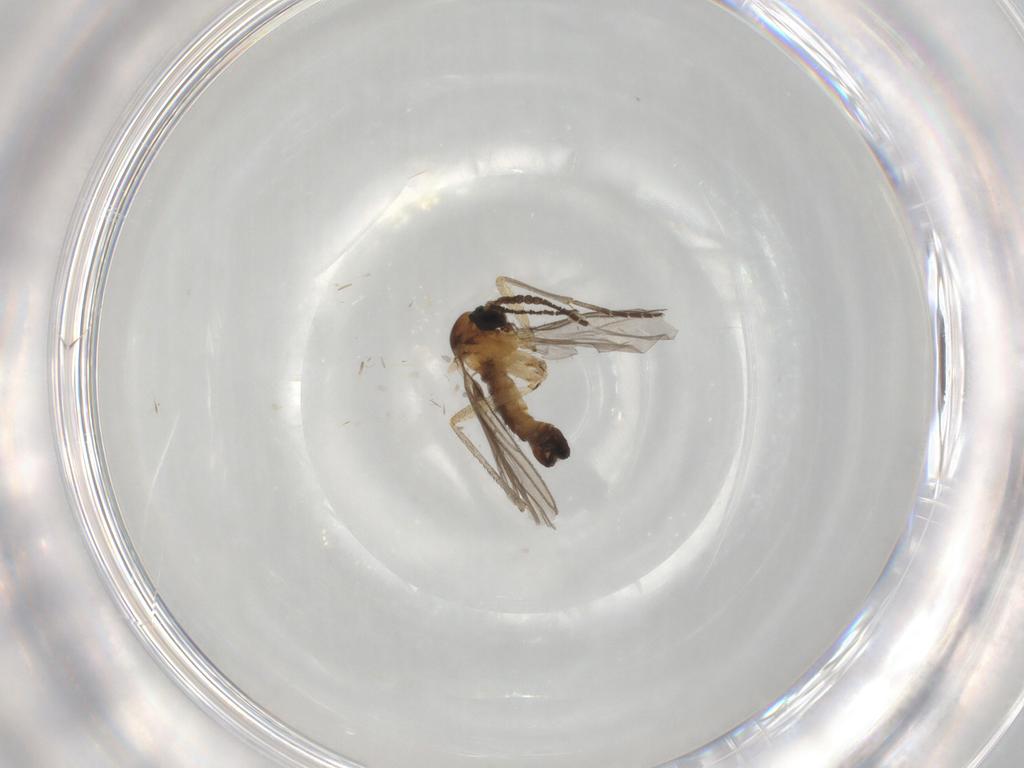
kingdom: Animalia
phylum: Arthropoda
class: Insecta
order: Diptera
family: Sciaridae
